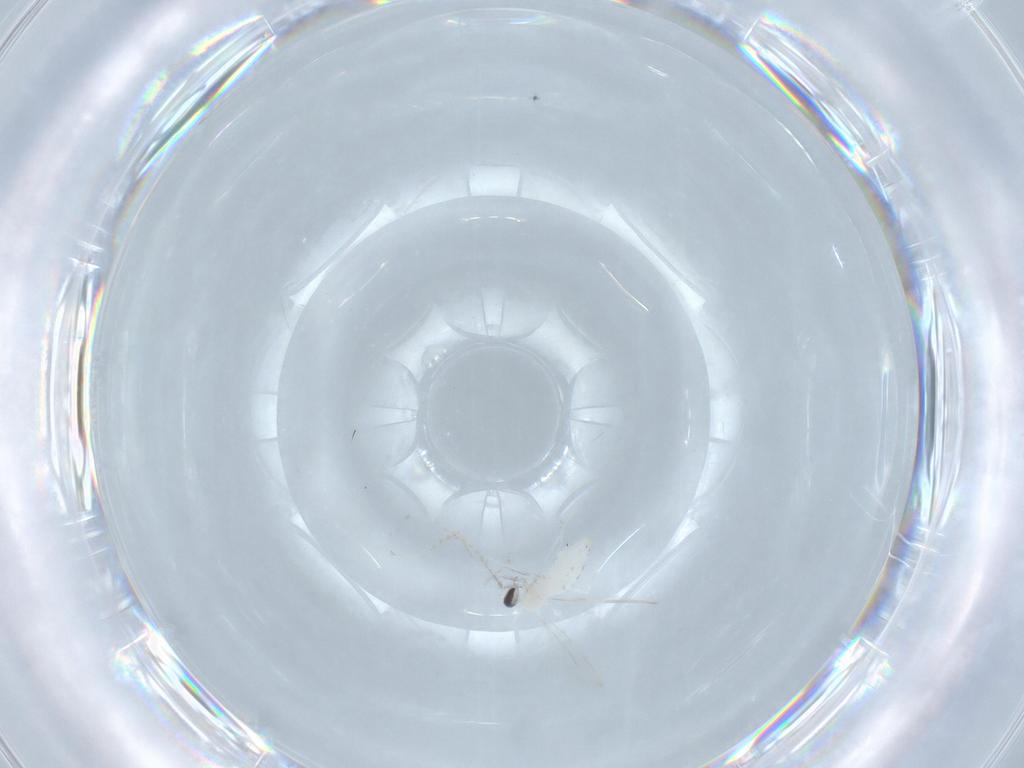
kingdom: Animalia
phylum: Arthropoda
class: Insecta
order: Diptera
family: Cecidomyiidae
